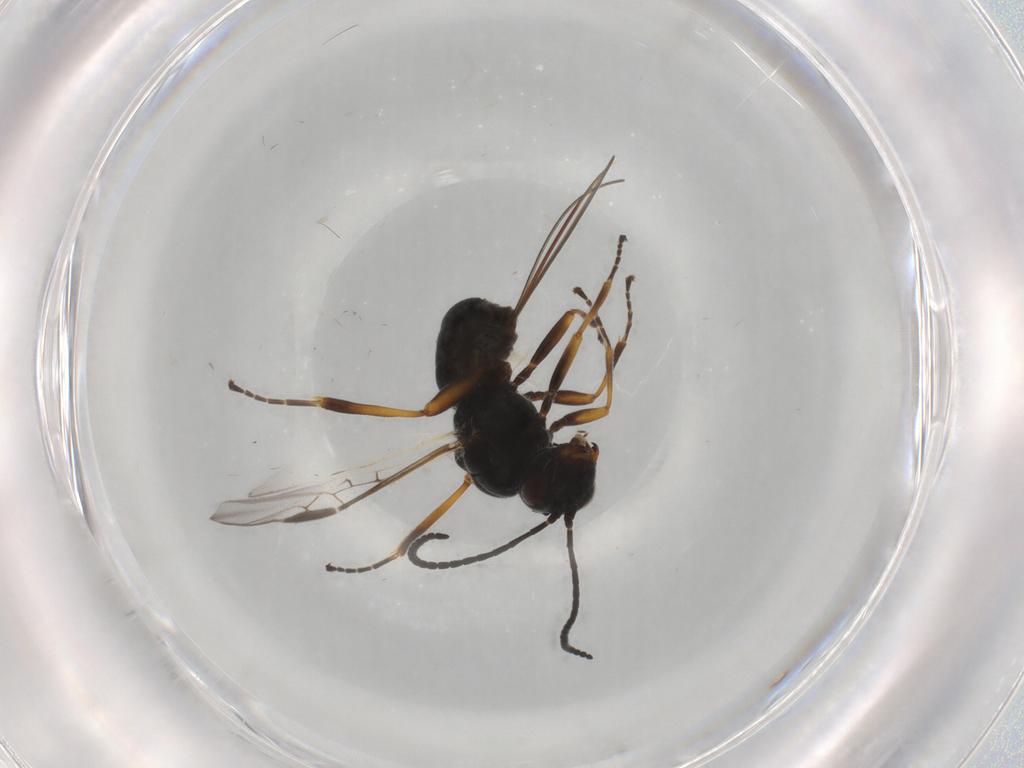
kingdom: Animalia
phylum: Arthropoda
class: Insecta
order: Hymenoptera
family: Braconidae
